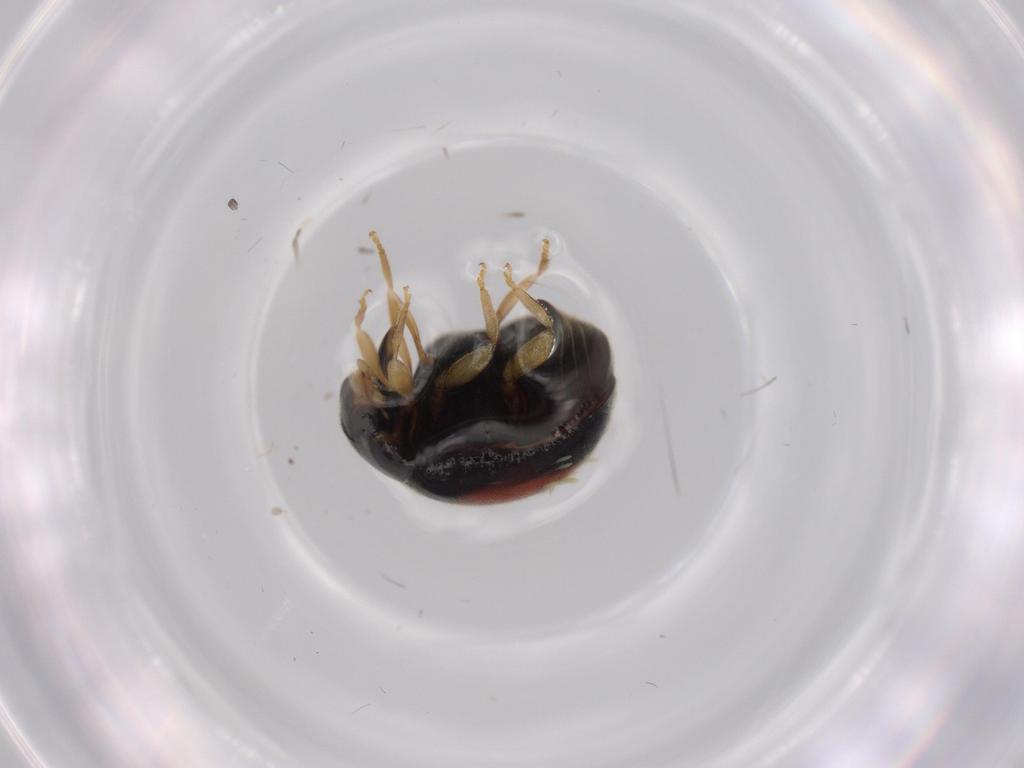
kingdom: Animalia
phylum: Arthropoda
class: Insecta
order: Coleoptera
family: Coccinellidae
